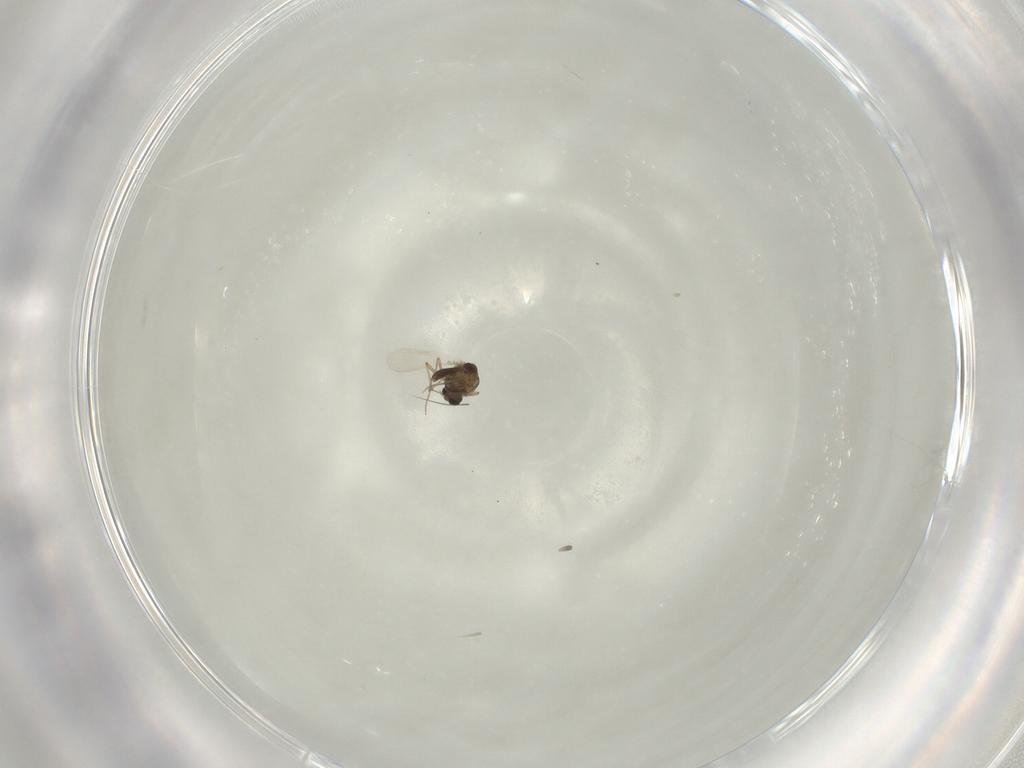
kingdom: Animalia
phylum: Arthropoda
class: Insecta
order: Diptera
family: Chironomidae
